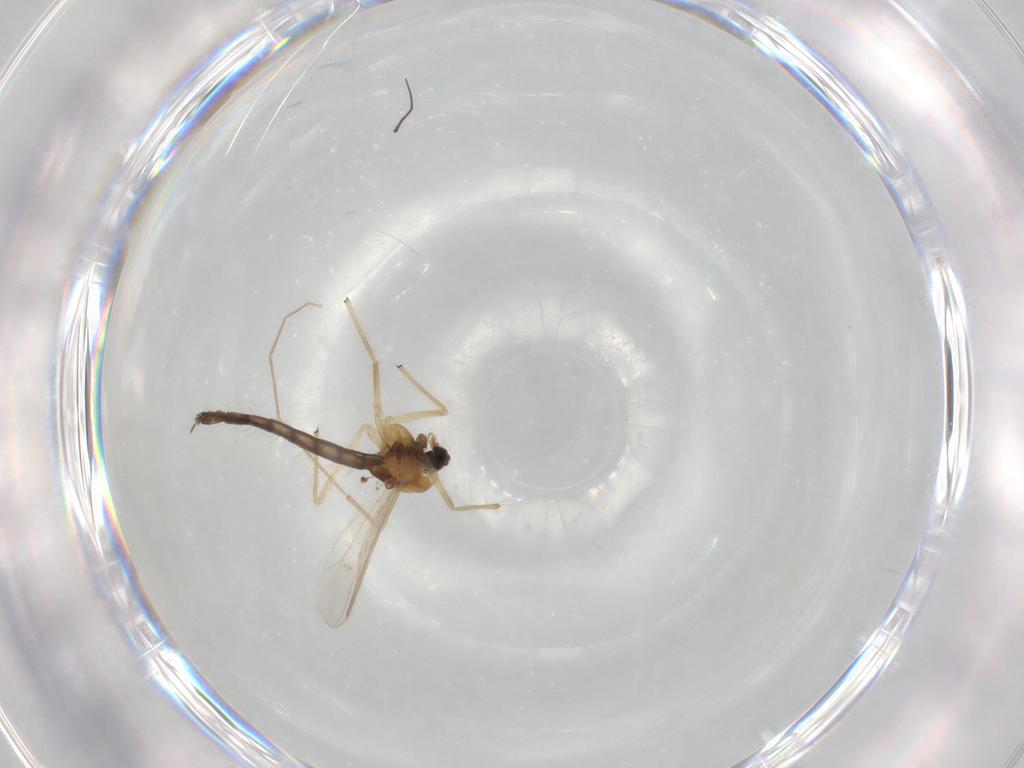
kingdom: Animalia
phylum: Arthropoda
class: Insecta
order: Diptera
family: Chironomidae
